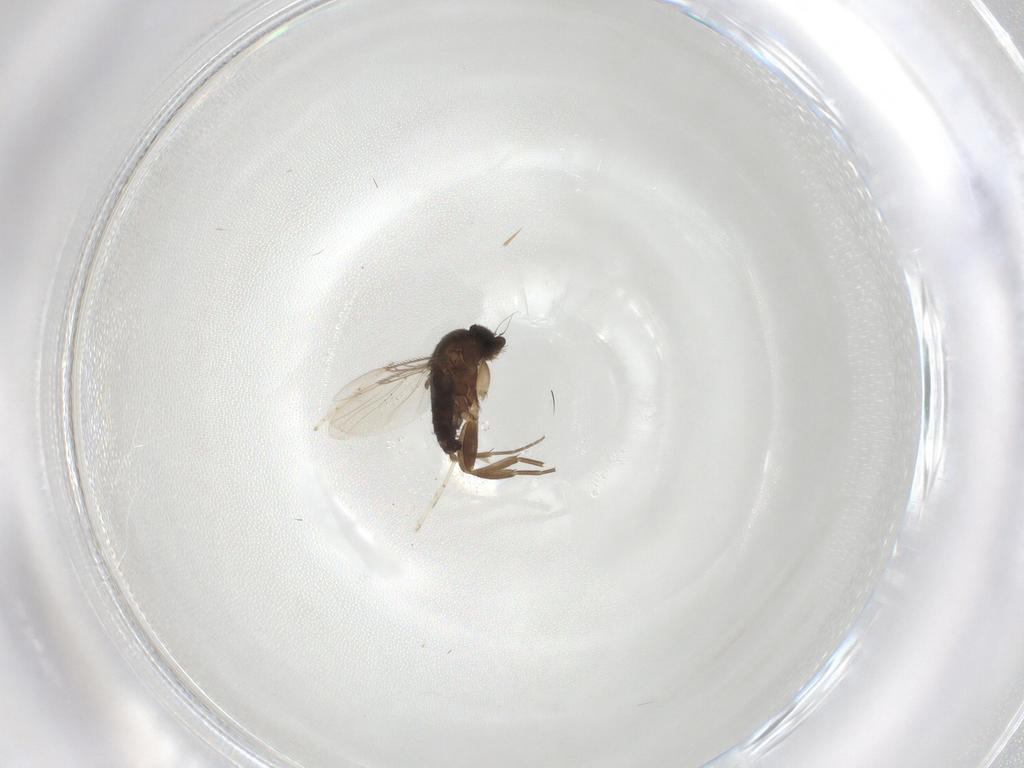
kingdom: Animalia
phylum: Arthropoda
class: Insecta
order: Diptera
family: Phoridae
